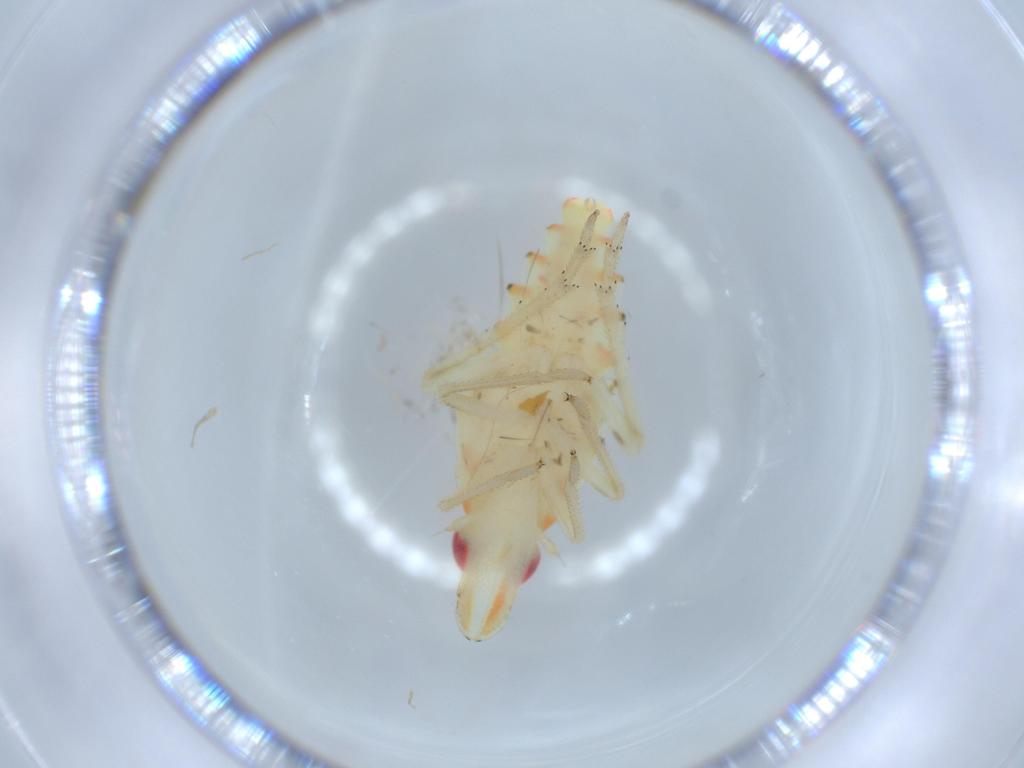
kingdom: Animalia
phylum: Arthropoda
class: Insecta
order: Hemiptera
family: Tropiduchidae
